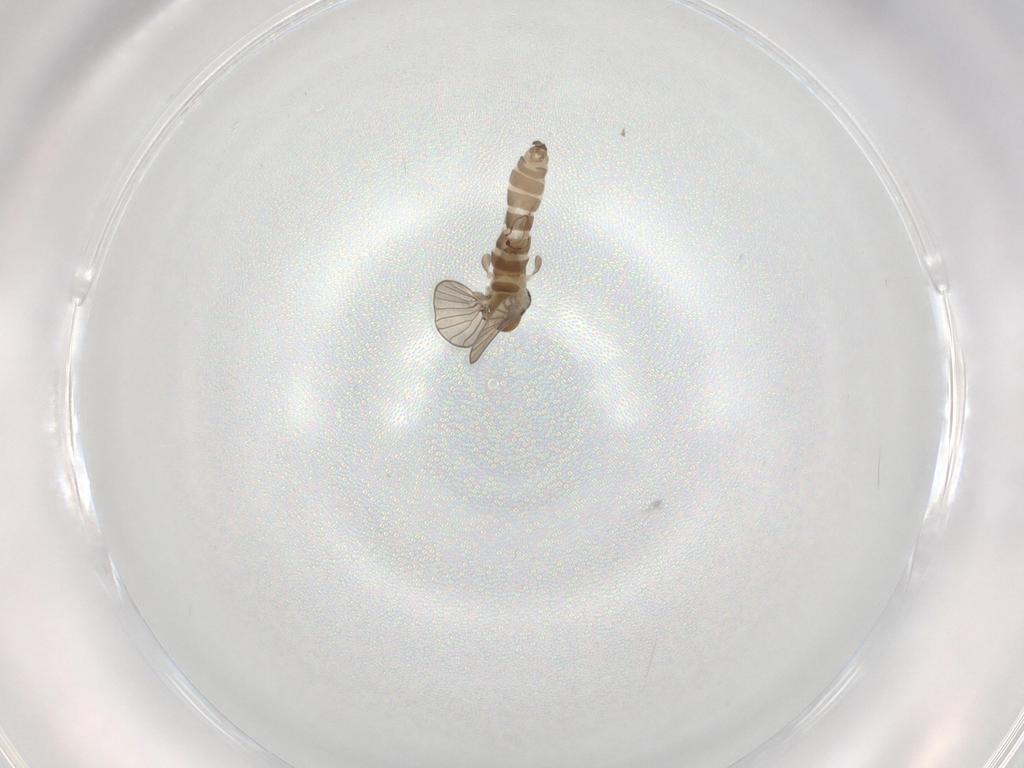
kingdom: Animalia
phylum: Arthropoda
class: Insecta
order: Diptera
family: Psychodidae
